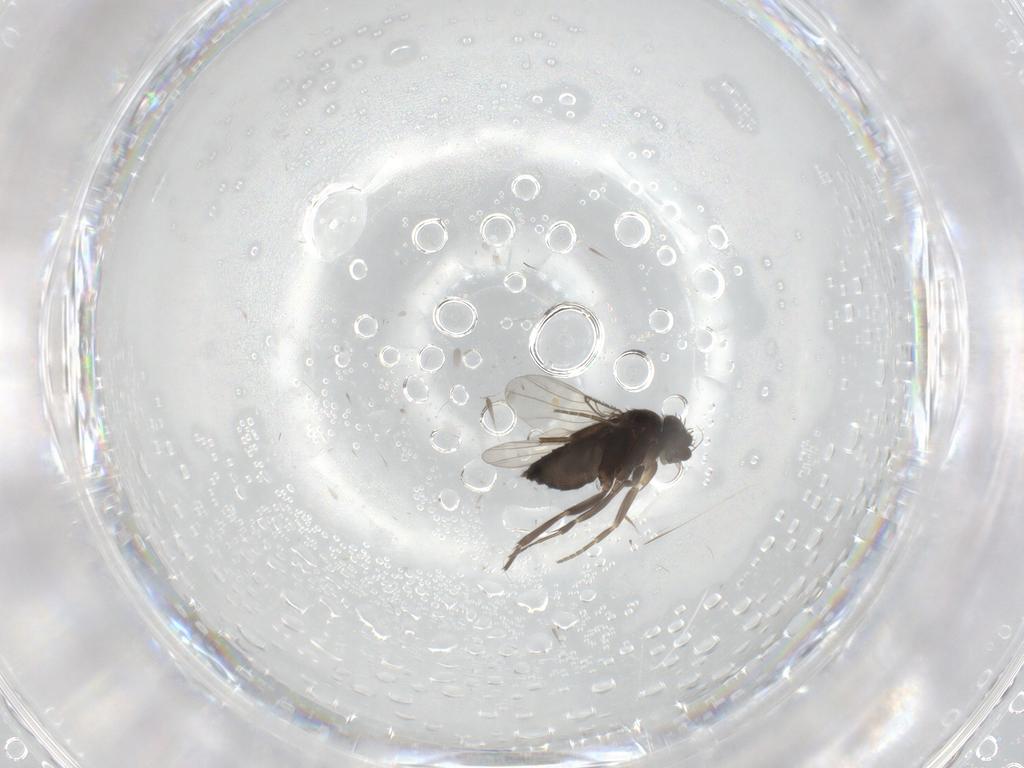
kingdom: Animalia
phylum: Arthropoda
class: Insecta
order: Diptera
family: Phoridae
